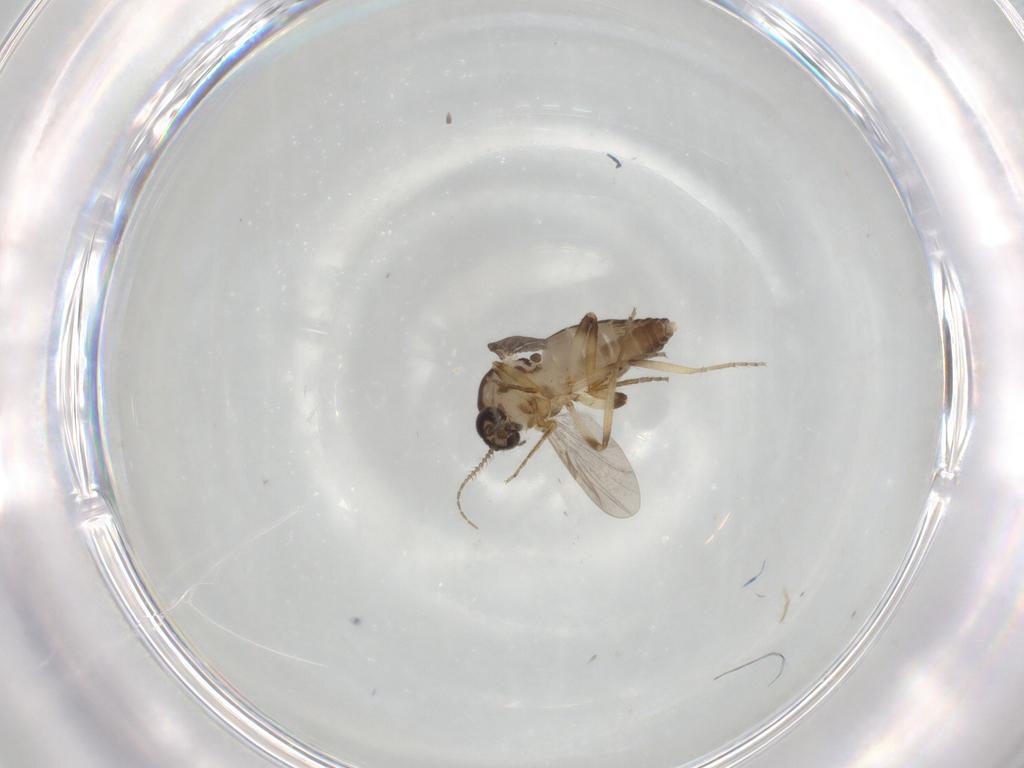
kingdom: Animalia
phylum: Arthropoda
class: Insecta
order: Diptera
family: Ceratopogonidae
